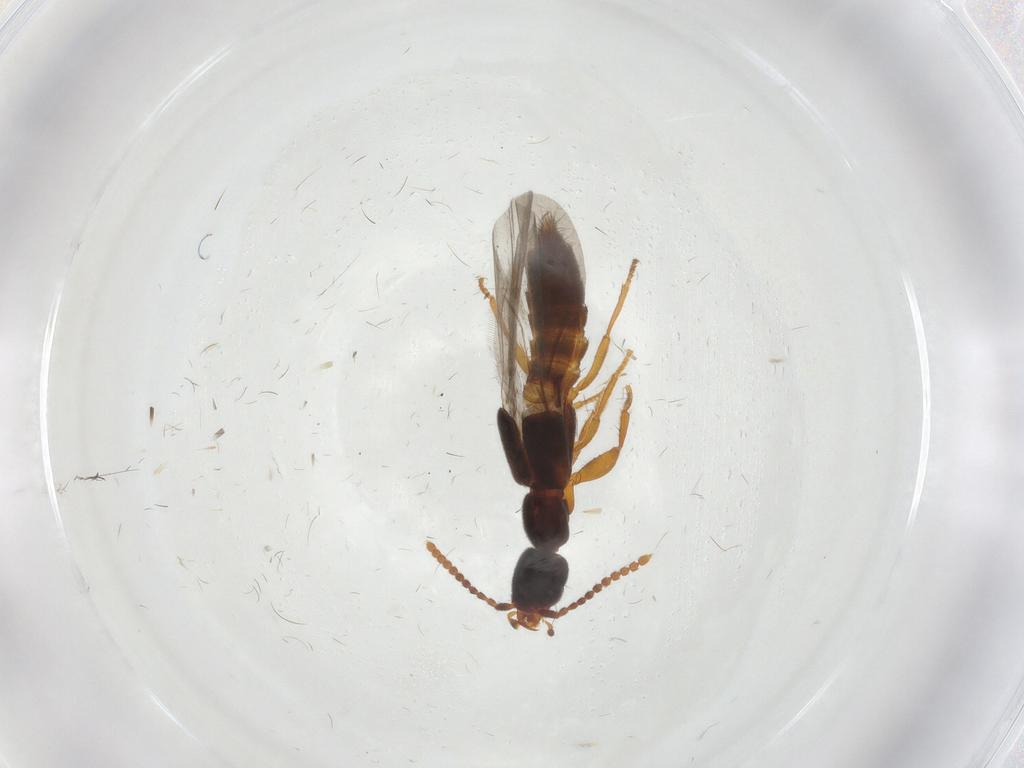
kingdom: Animalia
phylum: Arthropoda
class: Insecta
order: Coleoptera
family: Staphylinidae
